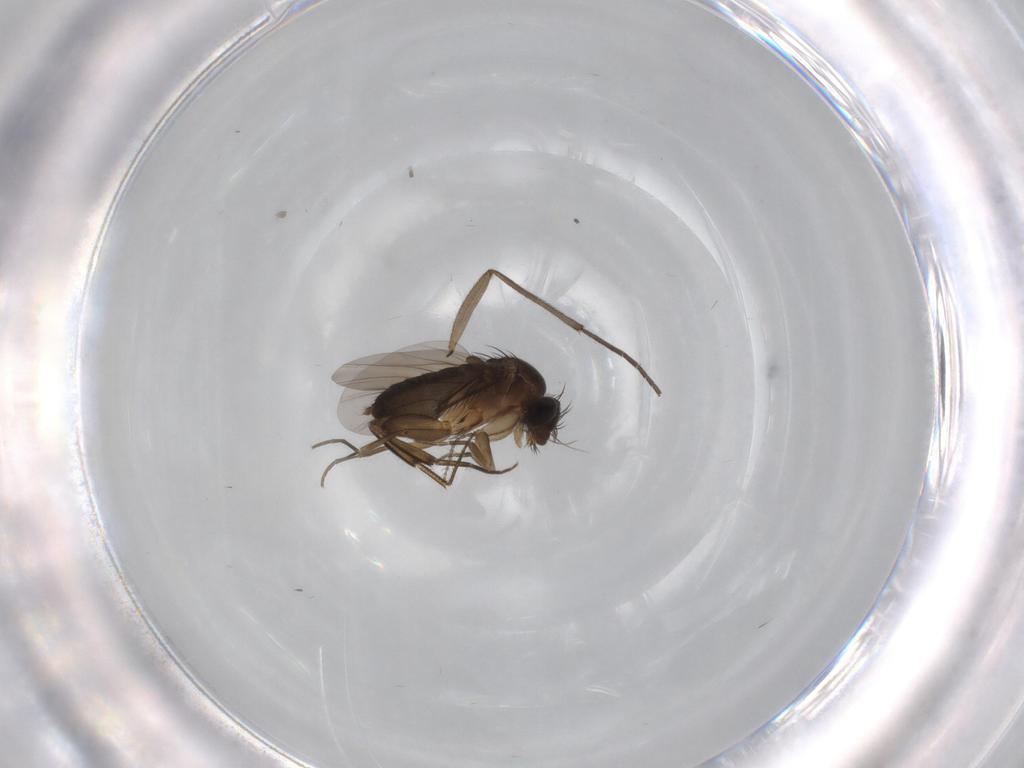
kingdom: Animalia
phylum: Arthropoda
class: Insecta
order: Diptera
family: Phoridae
